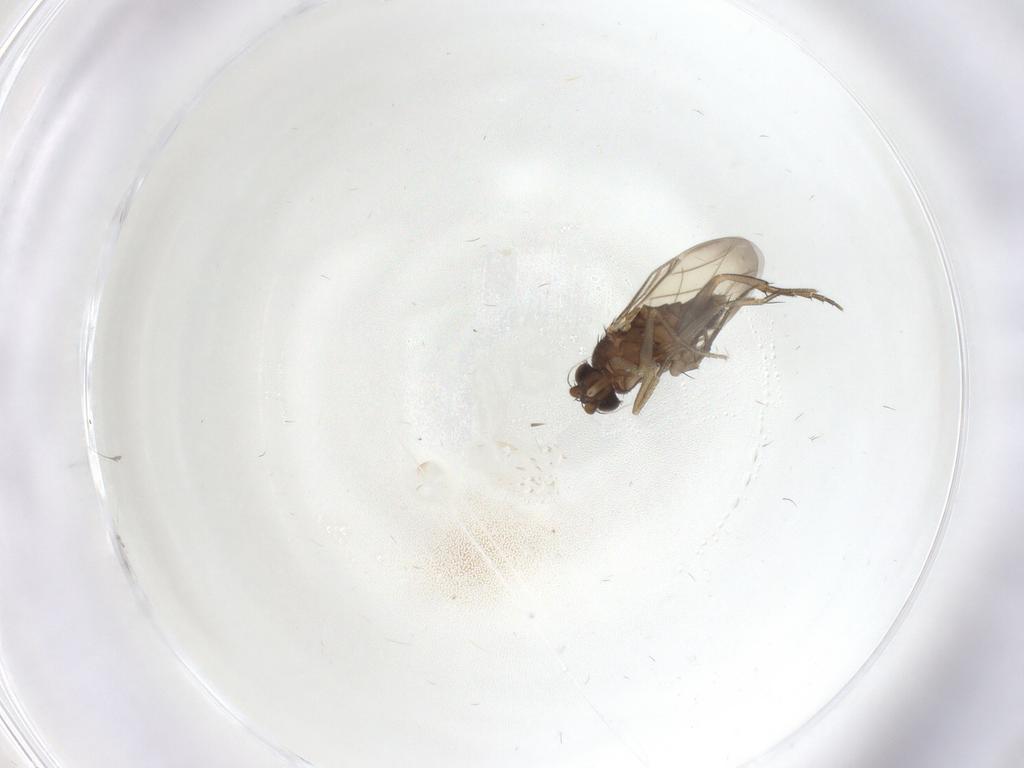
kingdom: Animalia
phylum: Arthropoda
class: Insecta
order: Diptera
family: Phoridae
